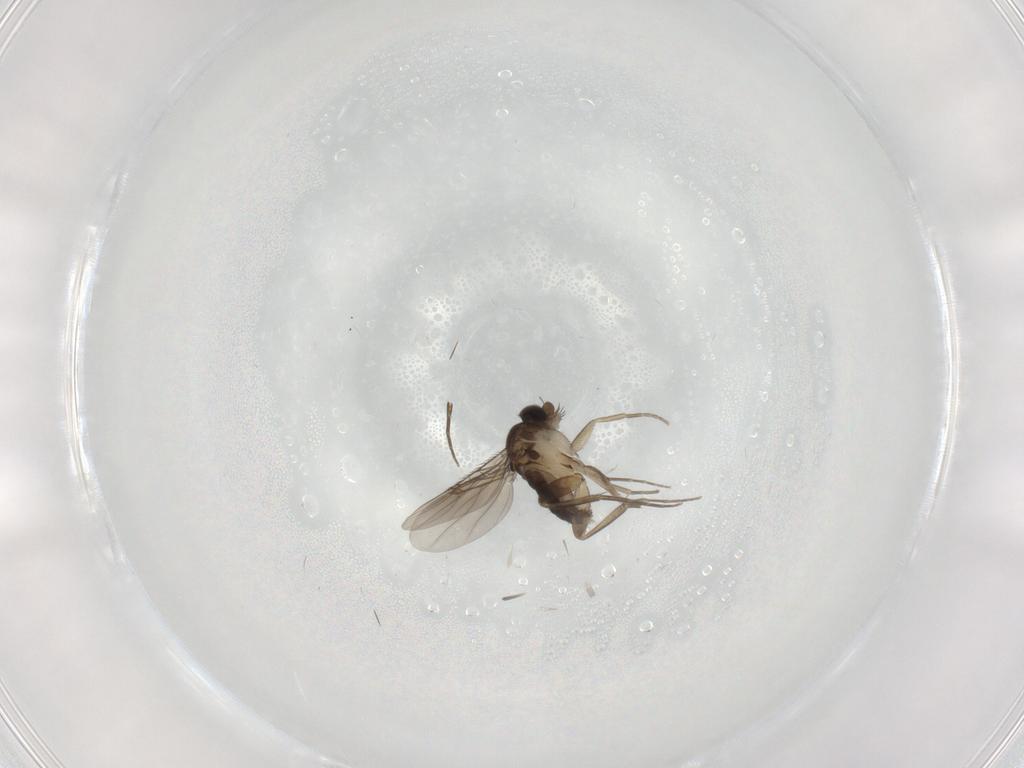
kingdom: Animalia
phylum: Arthropoda
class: Insecta
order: Diptera
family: Phoridae
